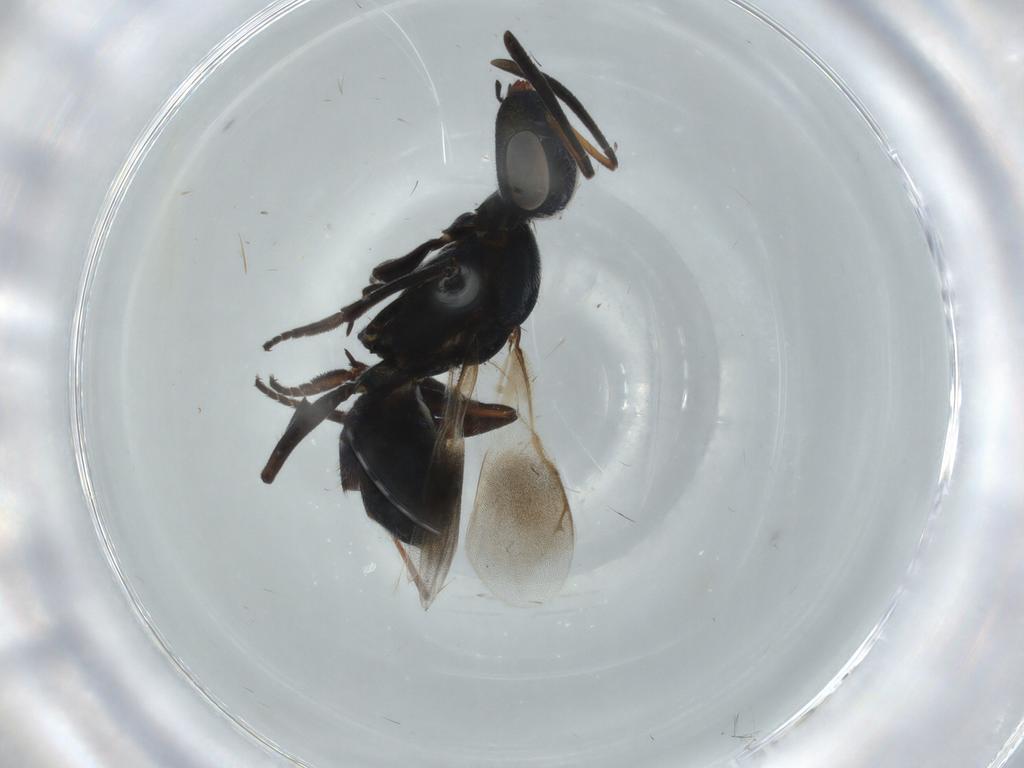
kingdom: Animalia
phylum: Arthropoda
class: Insecta
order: Hymenoptera
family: Eupelmidae
